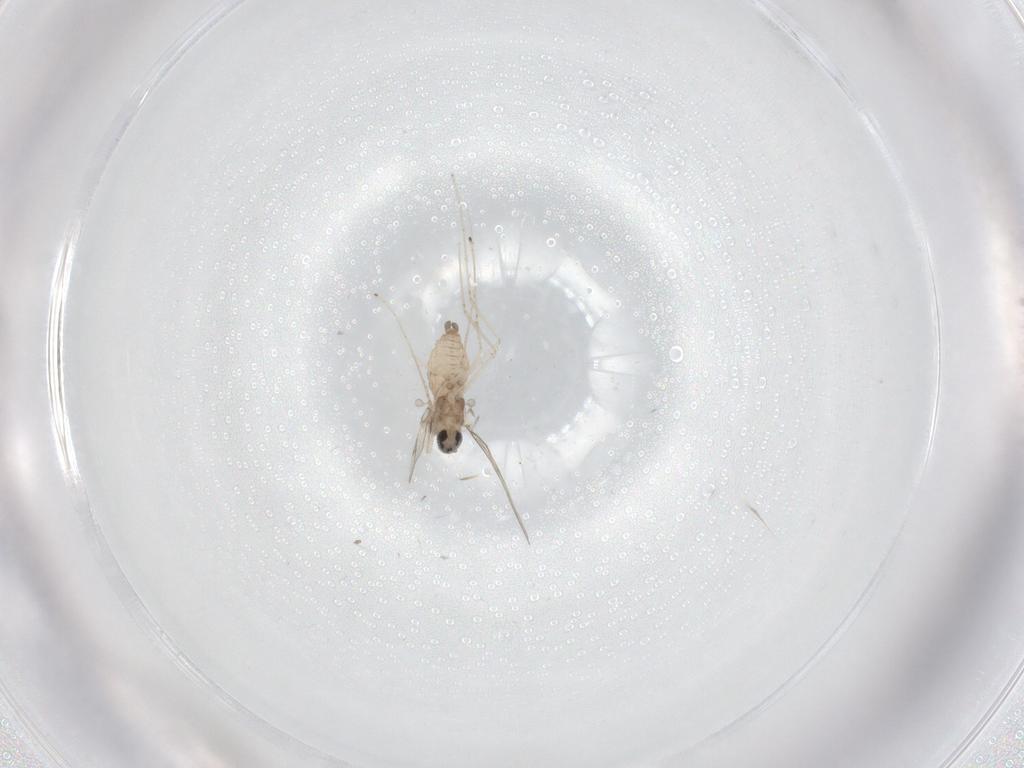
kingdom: Animalia
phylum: Arthropoda
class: Insecta
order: Diptera
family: Cecidomyiidae
